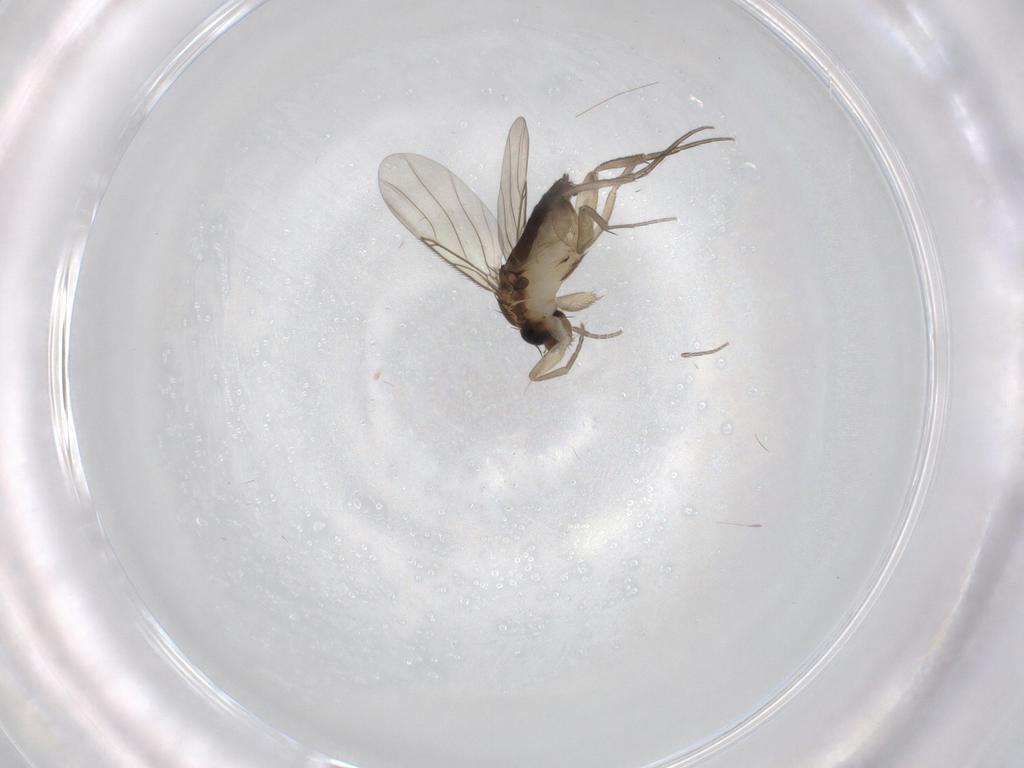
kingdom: Animalia
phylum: Arthropoda
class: Insecta
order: Diptera
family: Phoridae
